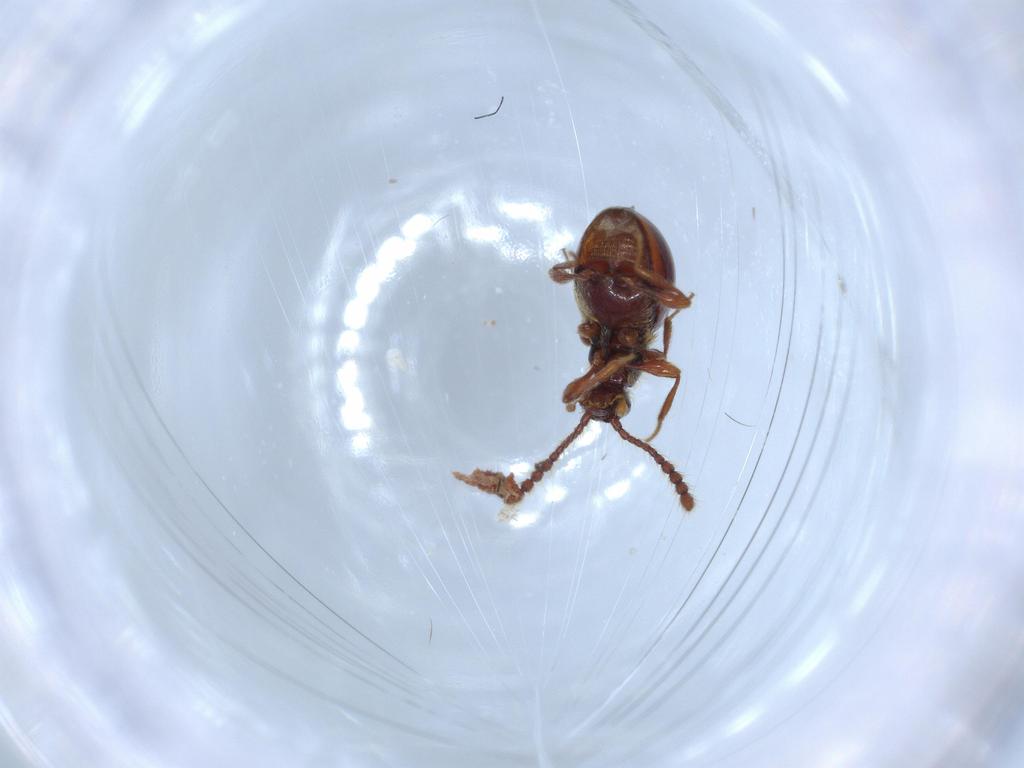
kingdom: Animalia
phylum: Arthropoda
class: Insecta
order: Coleoptera
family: Staphylinidae
